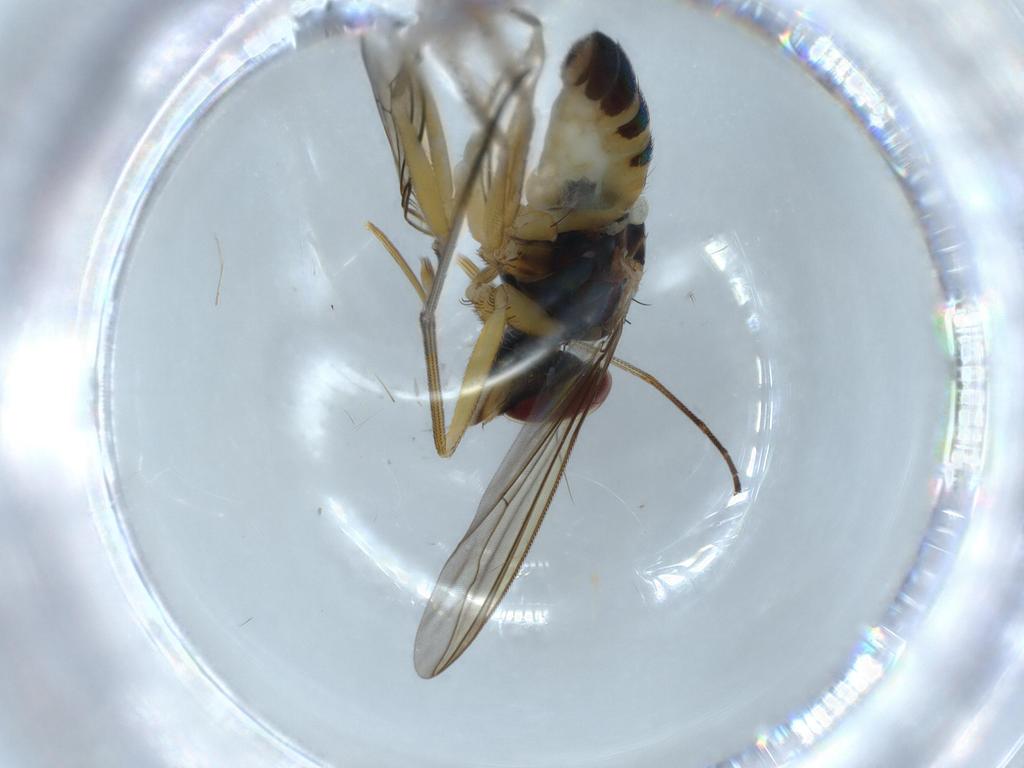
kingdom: Animalia
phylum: Arthropoda
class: Insecta
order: Diptera
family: Dolichopodidae
